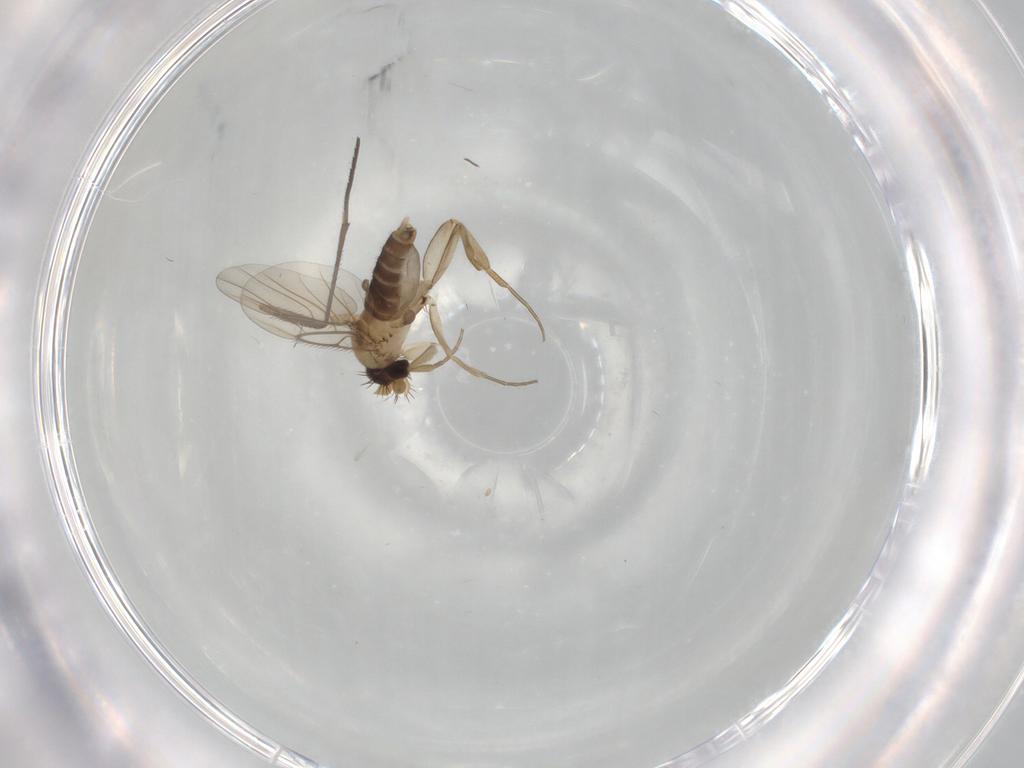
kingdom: Animalia
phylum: Arthropoda
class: Insecta
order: Diptera
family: Phoridae
